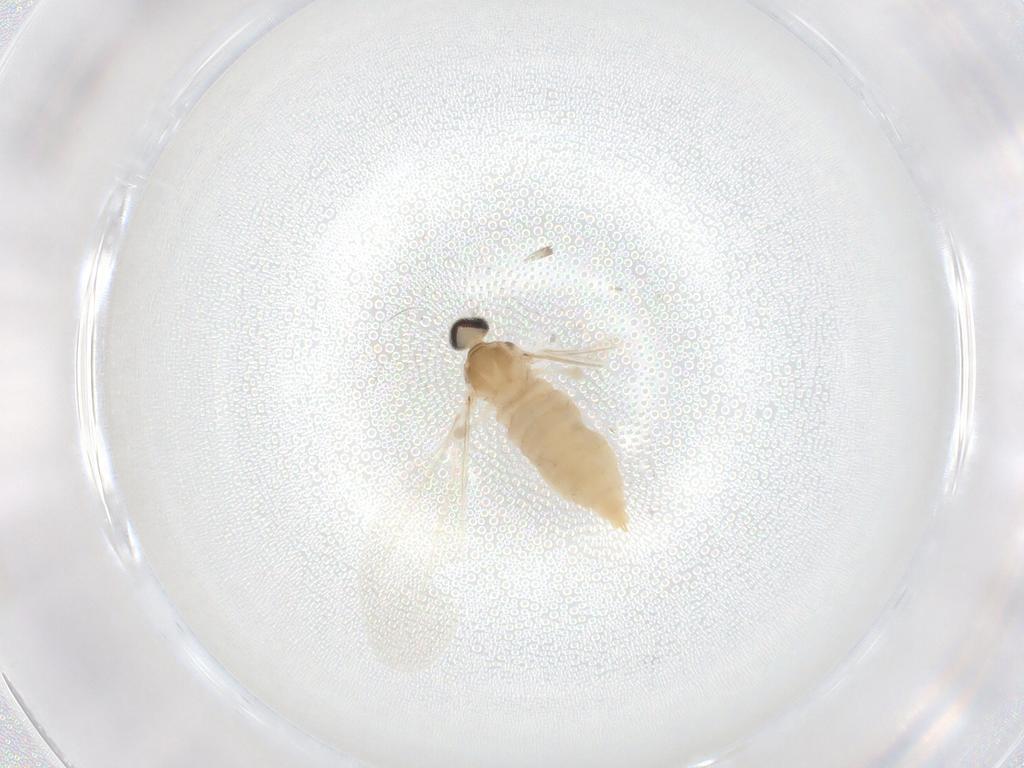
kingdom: Animalia
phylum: Arthropoda
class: Insecta
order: Diptera
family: Cecidomyiidae
